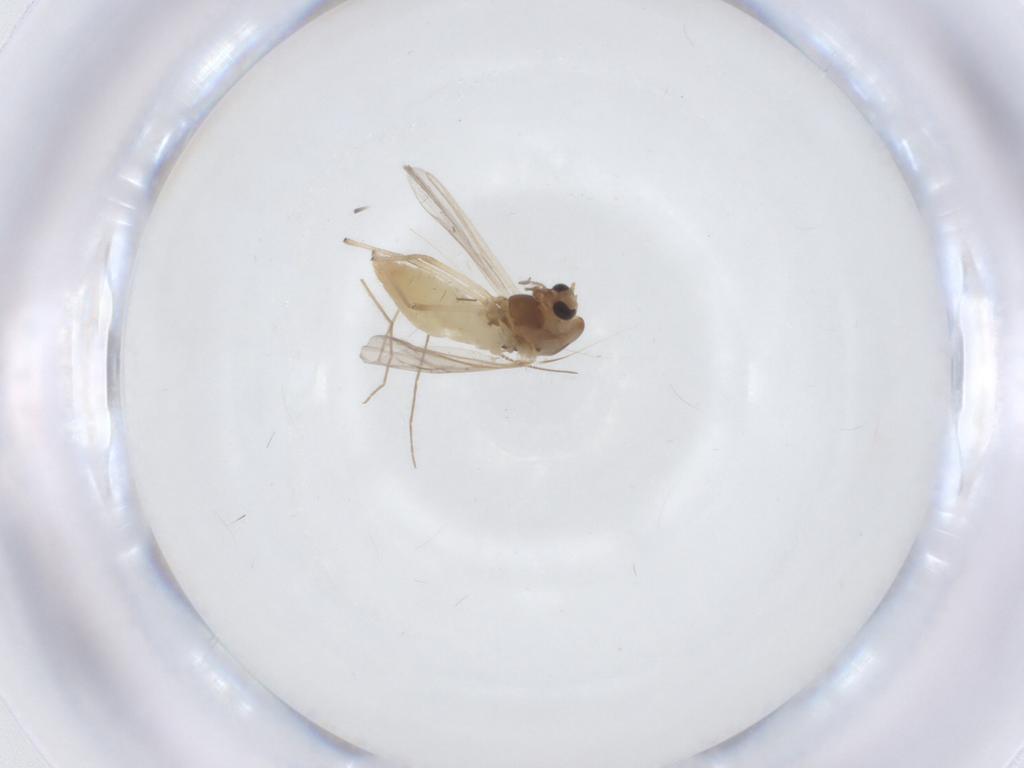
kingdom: Animalia
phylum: Arthropoda
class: Insecta
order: Diptera
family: Chironomidae
